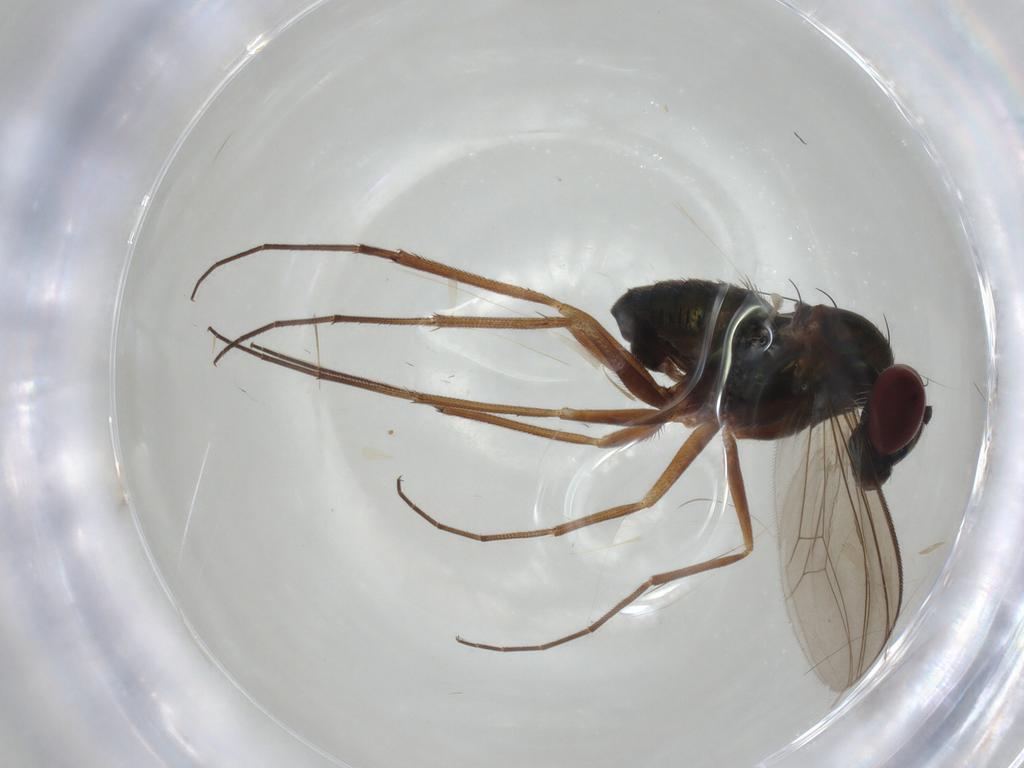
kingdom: Animalia
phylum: Arthropoda
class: Insecta
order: Diptera
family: Dolichopodidae
